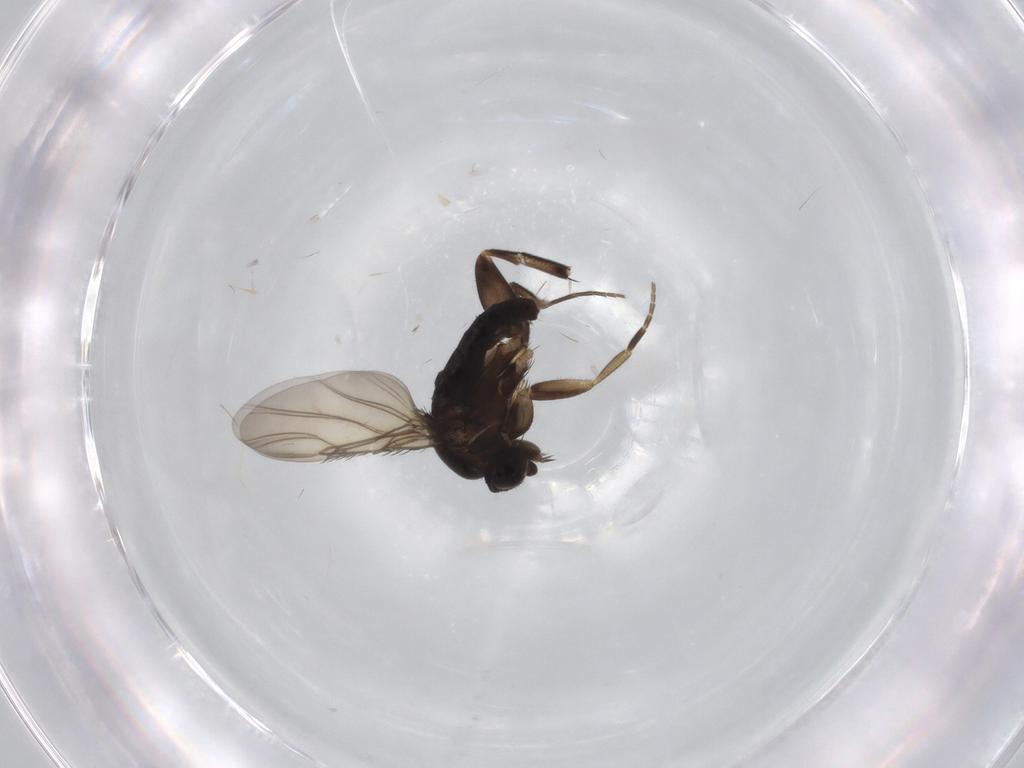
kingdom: Animalia
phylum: Arthropoda
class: Insecta
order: Diptera
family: Phoridae
